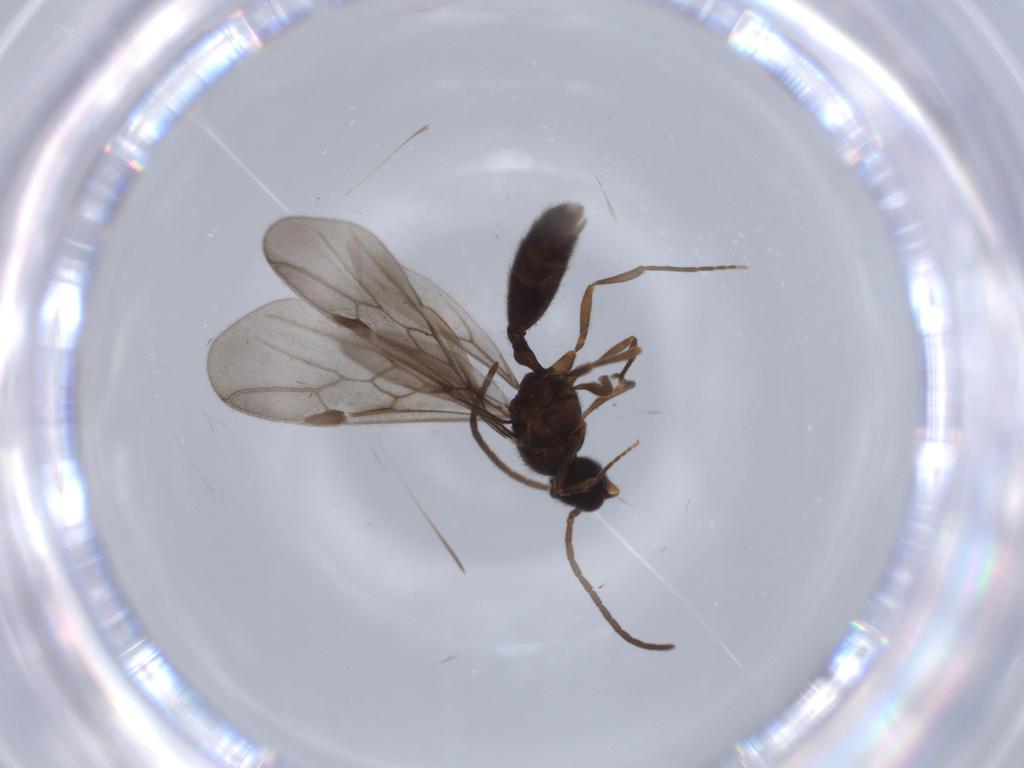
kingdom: Animalia
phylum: Arthropoda
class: Insecta
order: Hymenoptera
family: Formicidae
